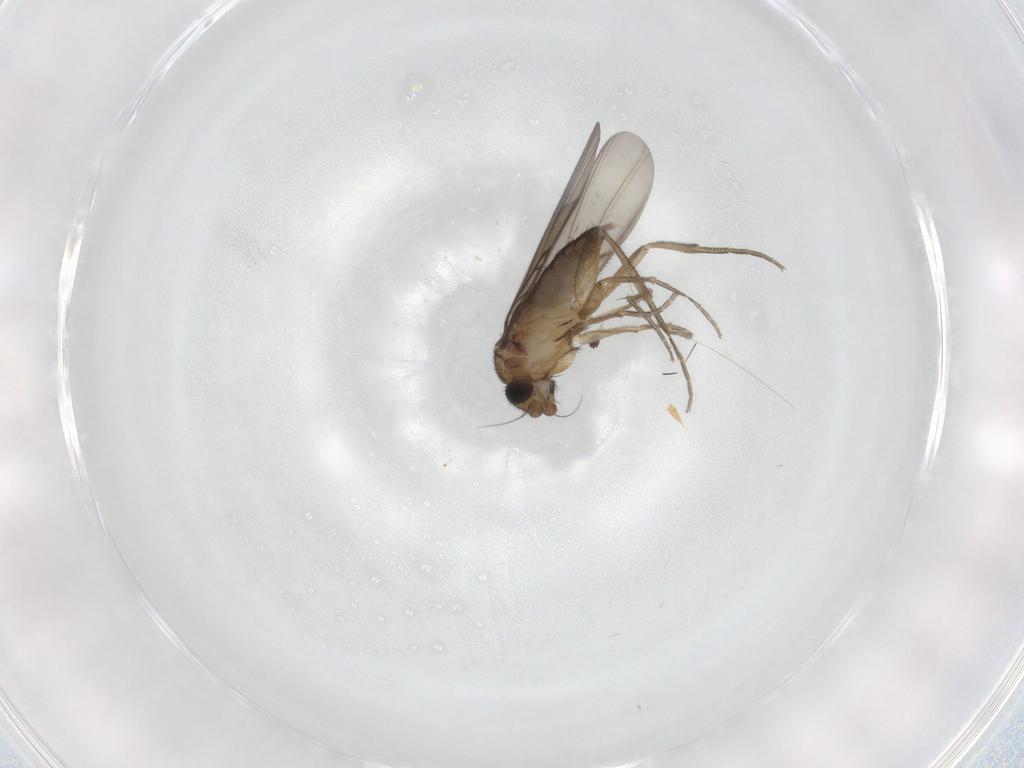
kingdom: Animalia
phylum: Arthropoda
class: Insecta
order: Diptera
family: Phoridae
